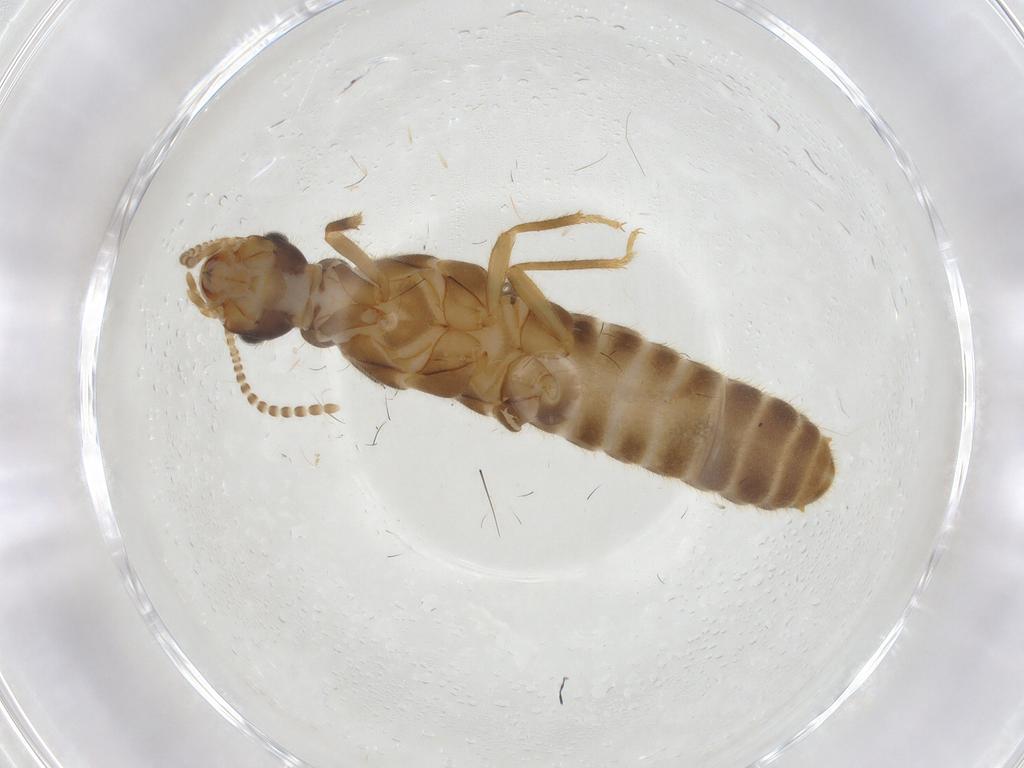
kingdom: Animalia
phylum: Arthropoda
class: Insecta
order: Blattodea
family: Ectobiidae
